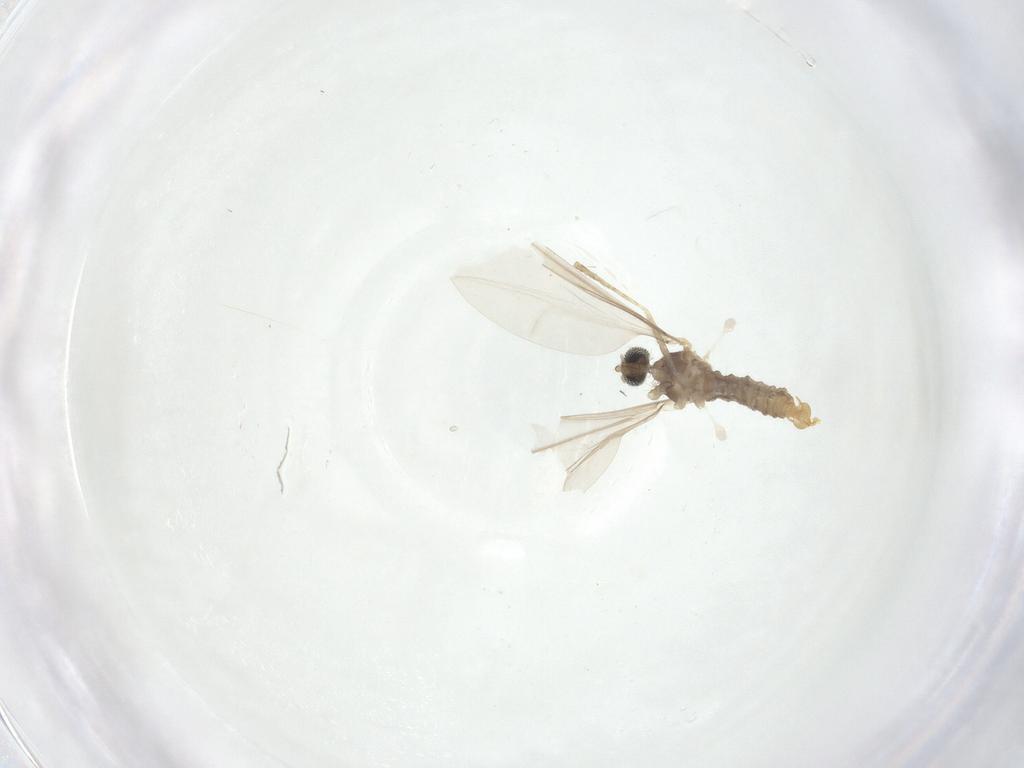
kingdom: Animalia
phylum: Arthropoda
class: Insecta
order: Diptera
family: Cecidomyiidae
